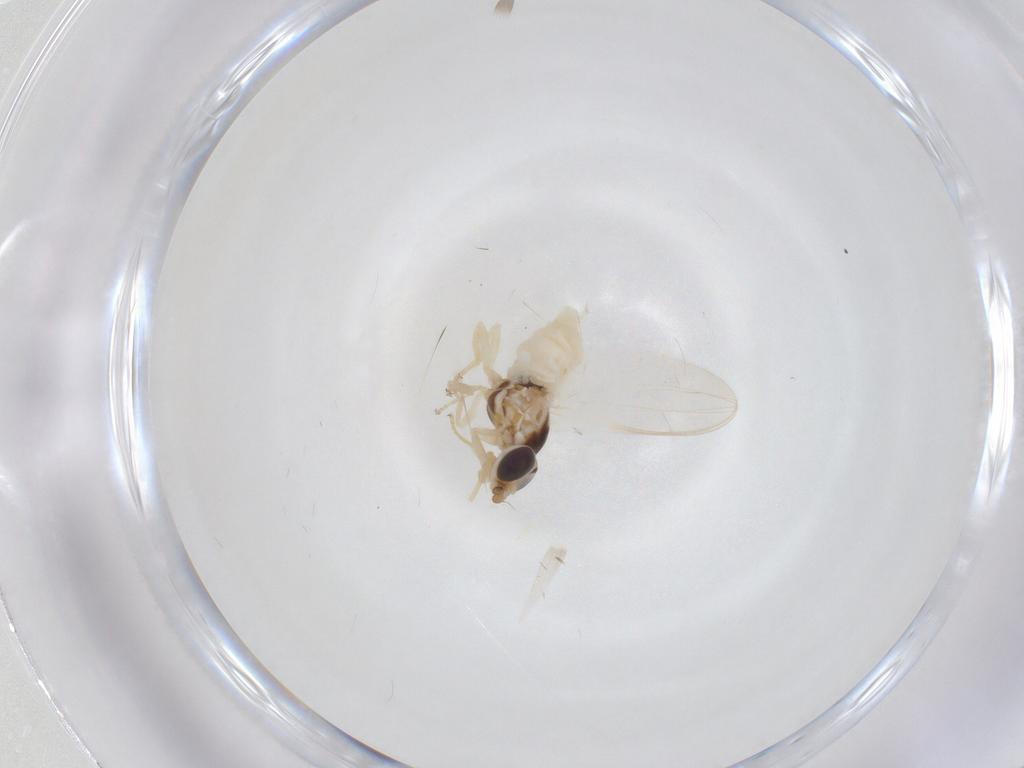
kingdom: Animalia
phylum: Arthropoda
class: Insecta
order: Diptera
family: Chloropidae
